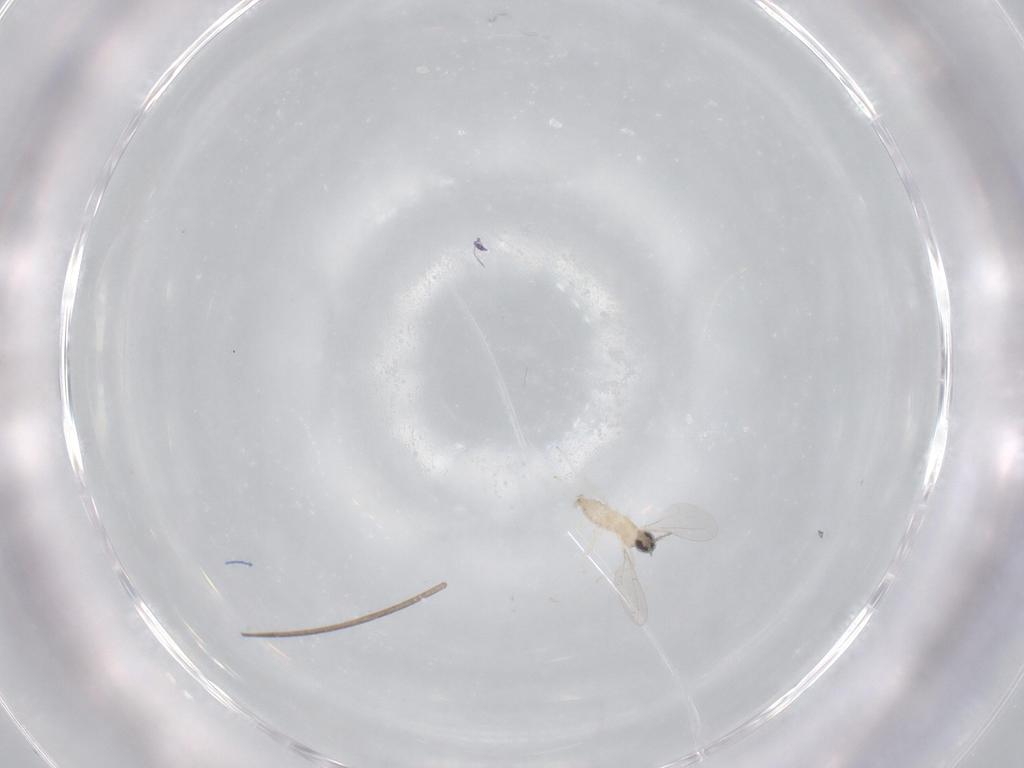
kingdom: Animalia
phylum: Arthropoda
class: Insecta
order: Diptera
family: Cecidomyiidae
